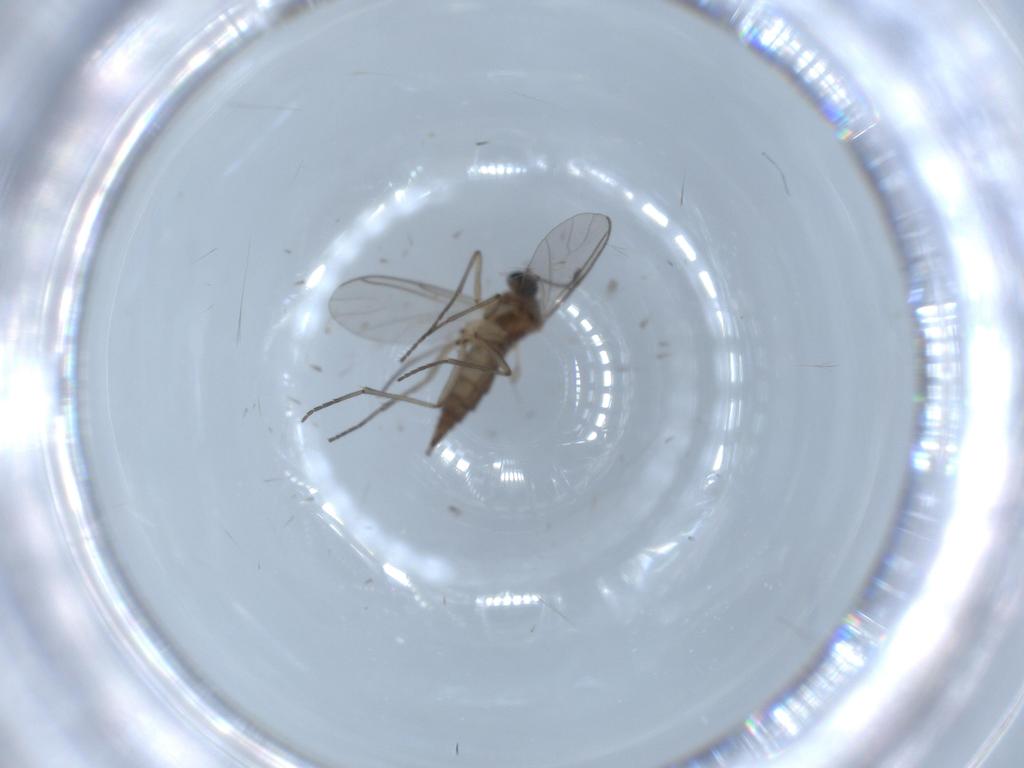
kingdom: Animalia
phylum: Arthropoda
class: Insecta
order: Diptera
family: Sciaridae
